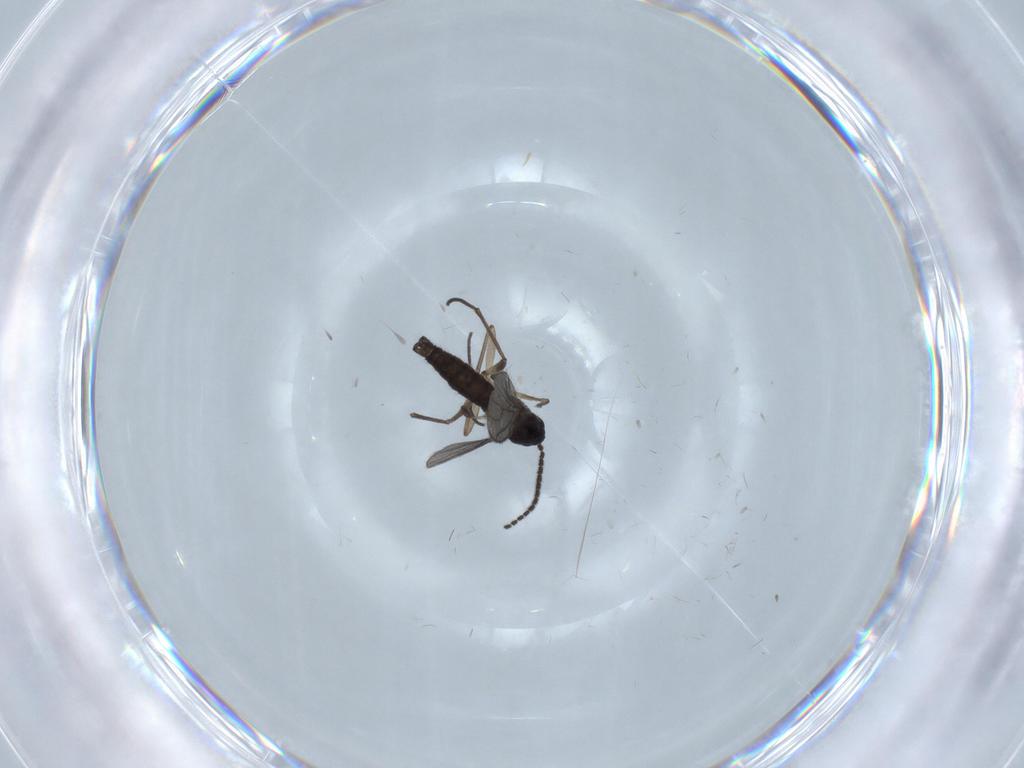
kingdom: Animalia
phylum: Arthropoda
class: Insecta
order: Diptera
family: Sciaridae
